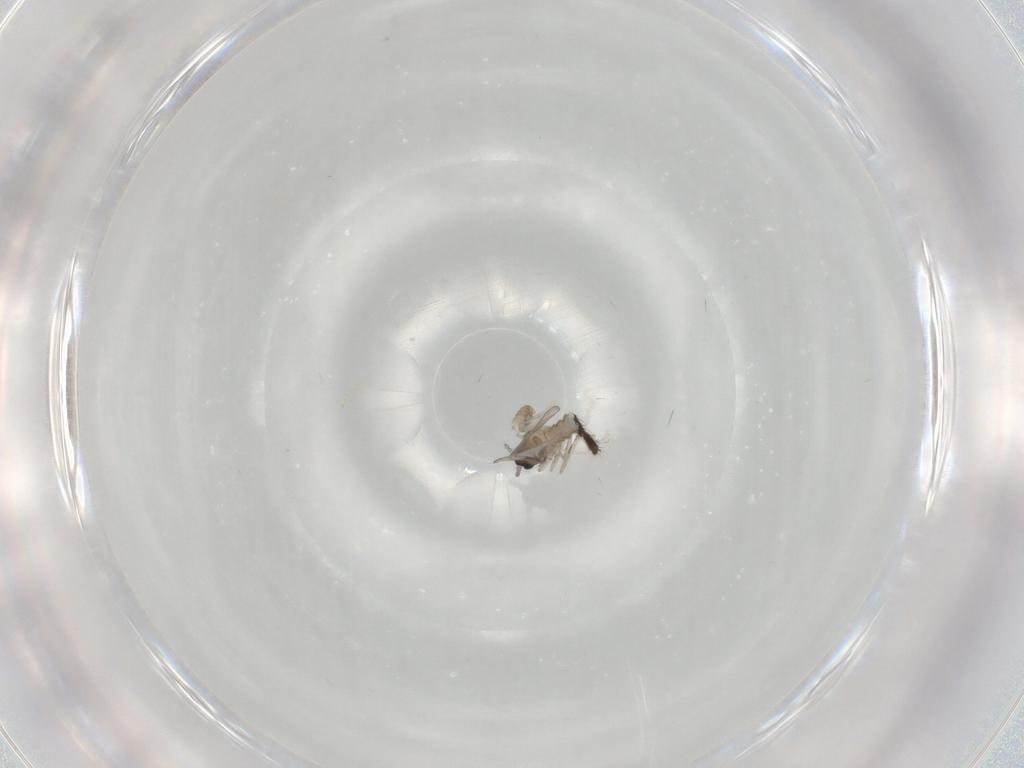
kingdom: Animalia
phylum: Arthropoda
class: Insecta
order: Diptera
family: Cecidomyiidae
